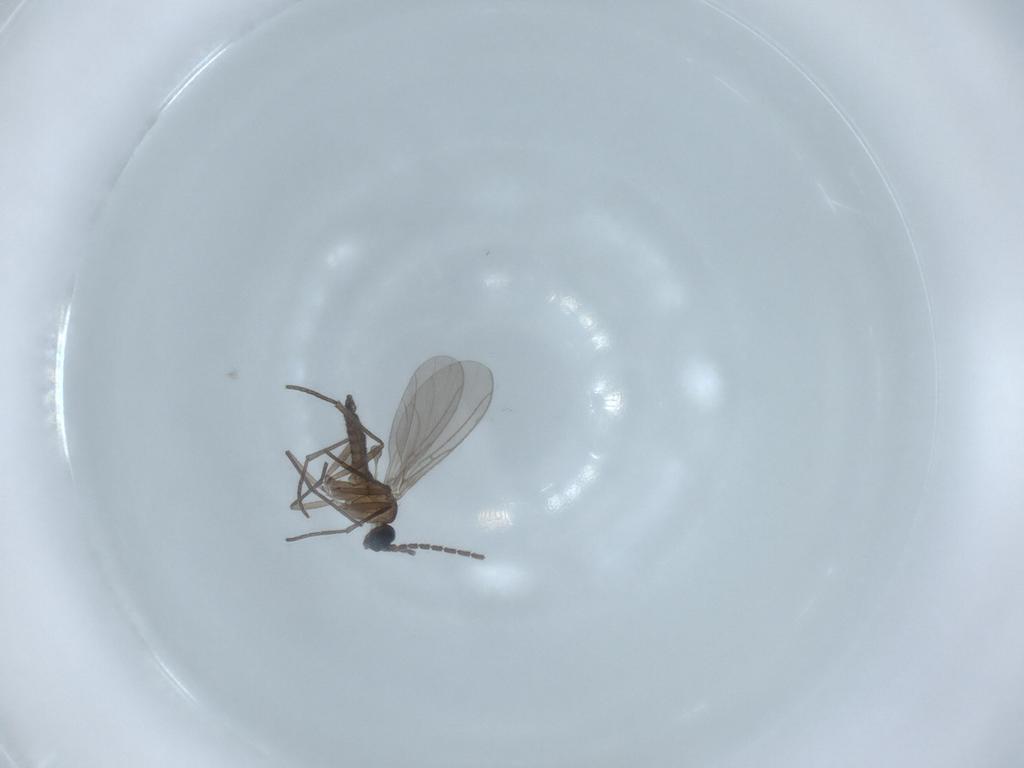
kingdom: Animalia
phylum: Arthropoda
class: Insecta
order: Diptera
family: Sciaridae
